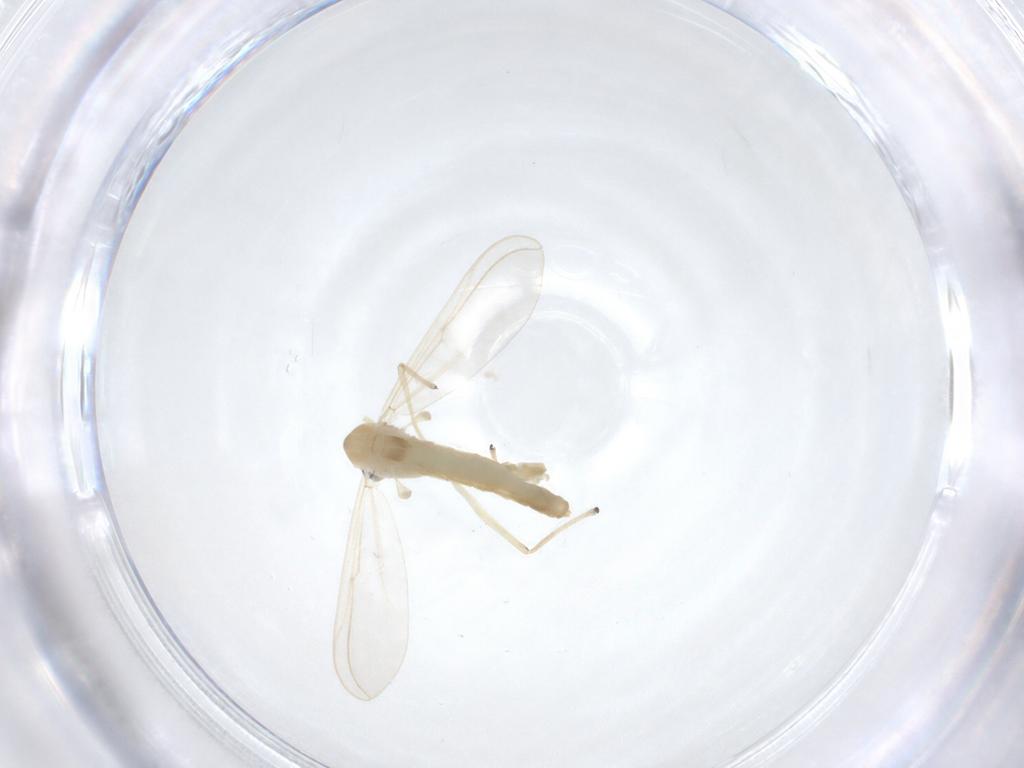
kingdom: Animalia
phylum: Arthropoda
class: Insecta
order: Diptera
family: Chironomidae
